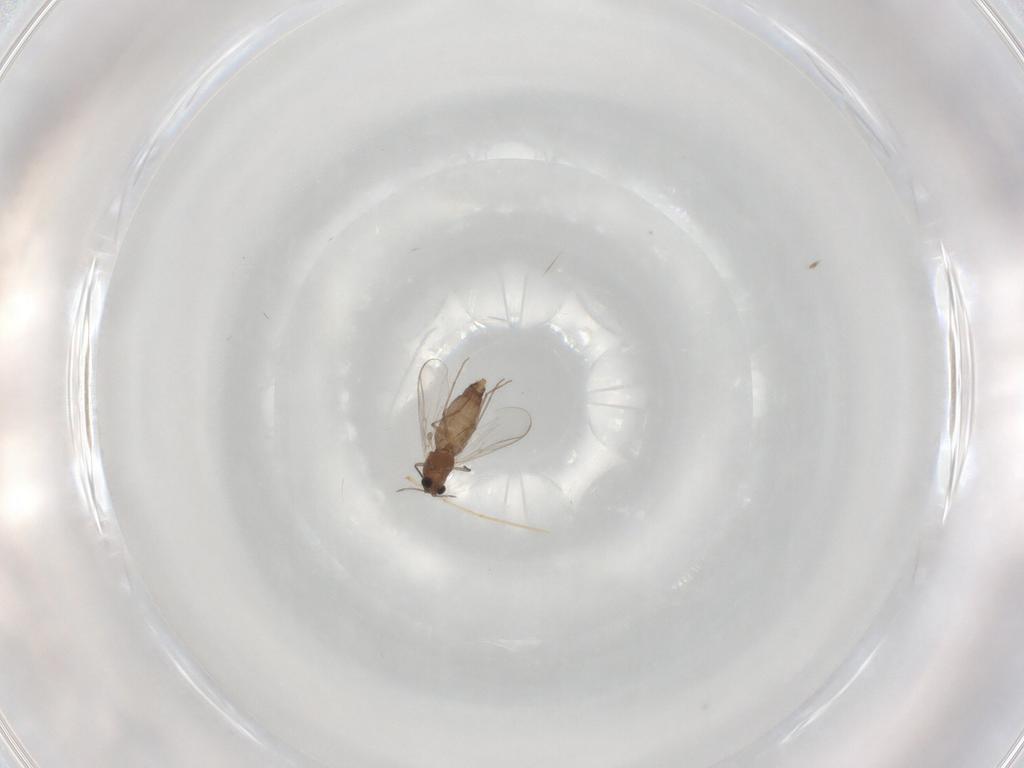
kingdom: Animalia
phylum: Arthropoda
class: Insecta
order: Diptera
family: Chironomidae
